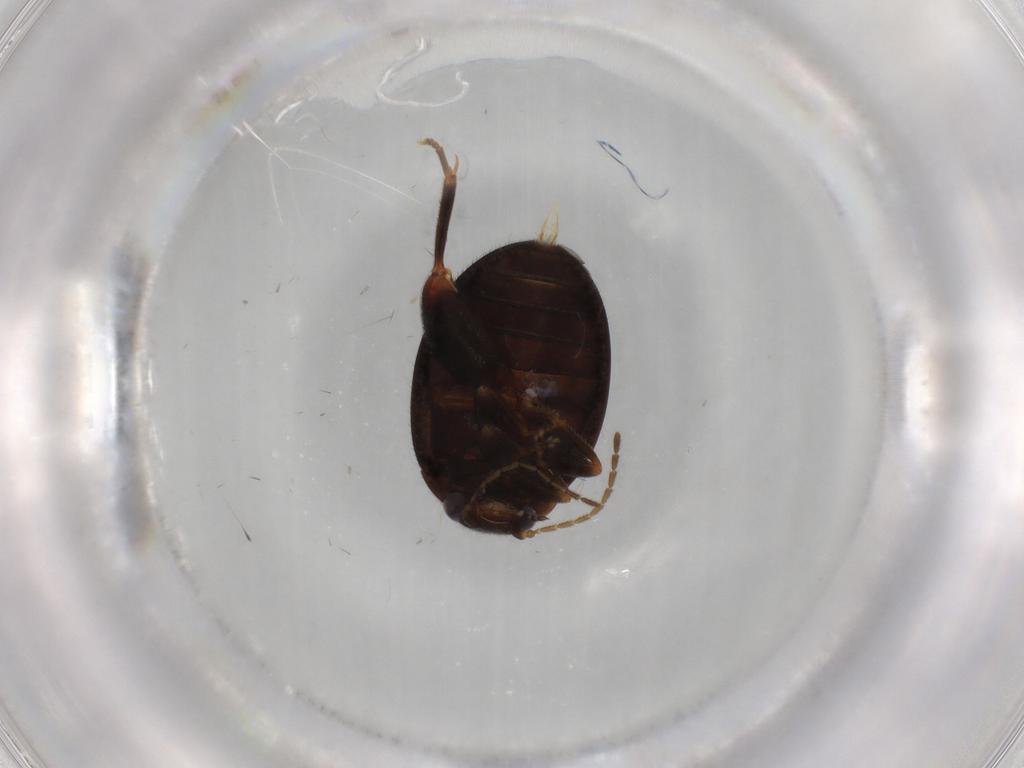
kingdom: Animalia
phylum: Arthropoda
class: Insecta
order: Coleoptera
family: Scirtidae
